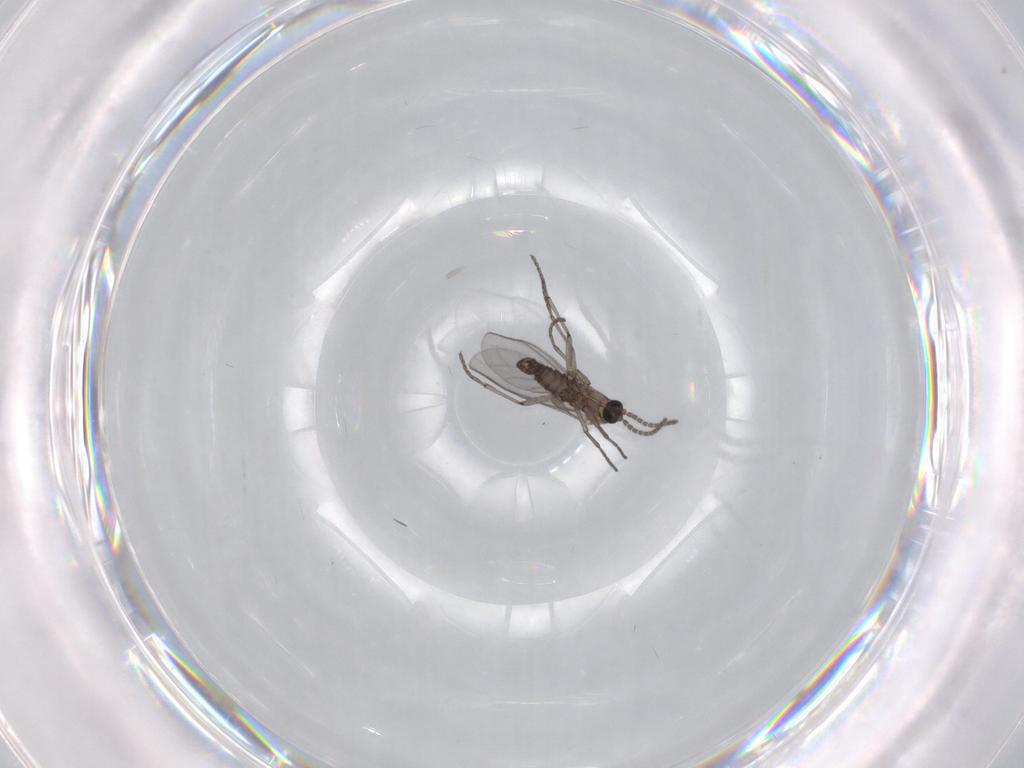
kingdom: Animalia
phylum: Arthropoda
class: Insecta
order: Diptera
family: Sciaridae
